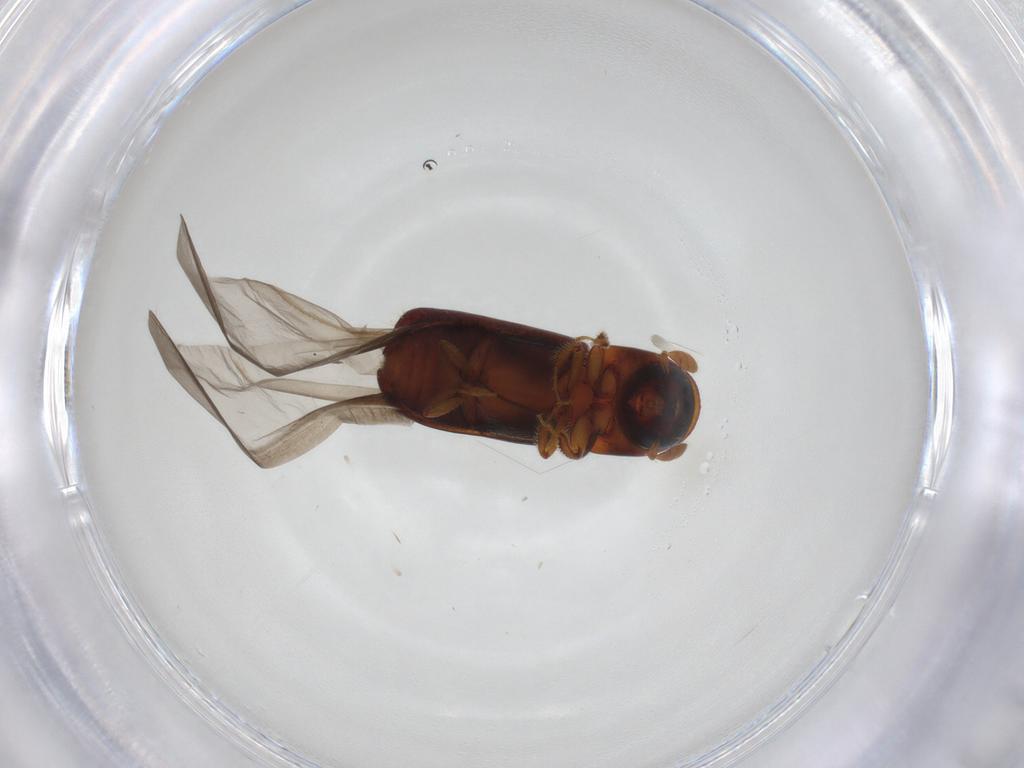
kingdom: Animalia
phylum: Arthropoda
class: Insecta
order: Coleoptera
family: Curculionidae
